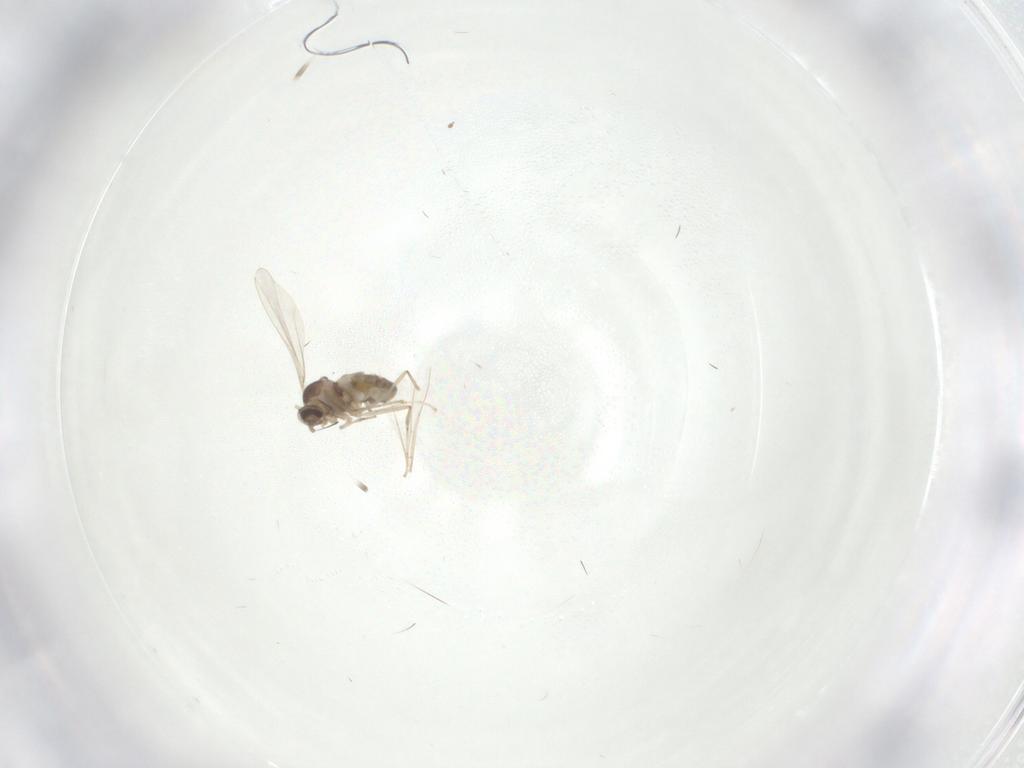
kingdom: Animalia
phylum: Arthropoda
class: Insecta
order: Diptera
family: Cecidomyiidae
